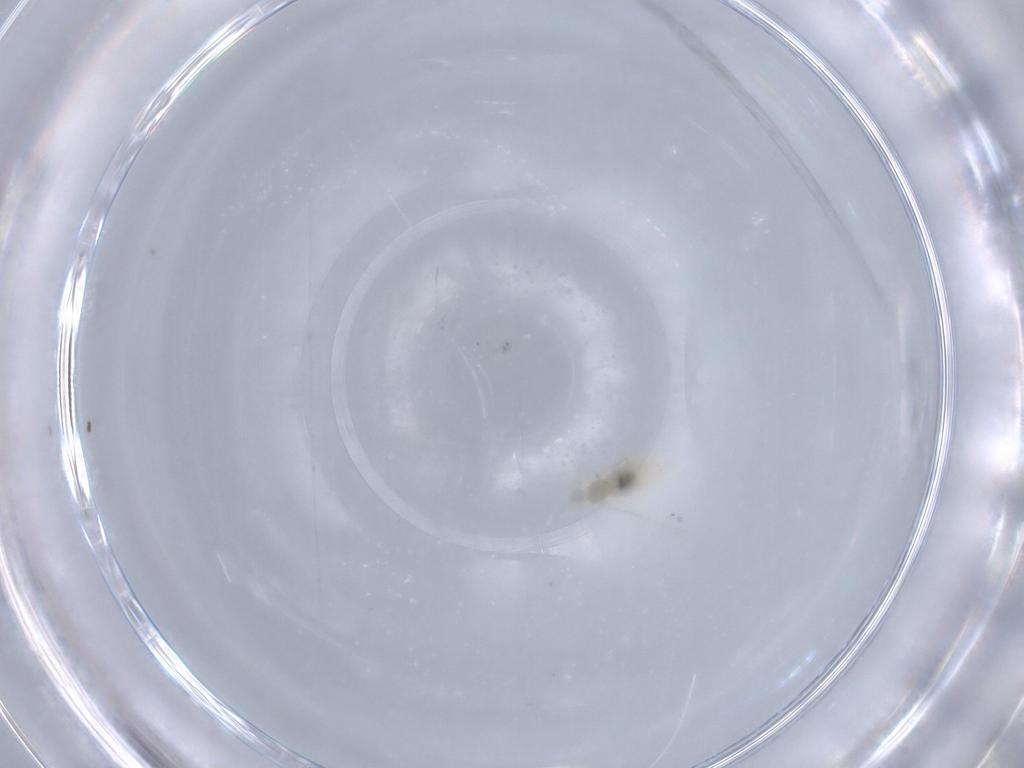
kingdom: Animalia
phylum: Arthropoda
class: Insecta
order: Diptera
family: Cecidomyiidae
